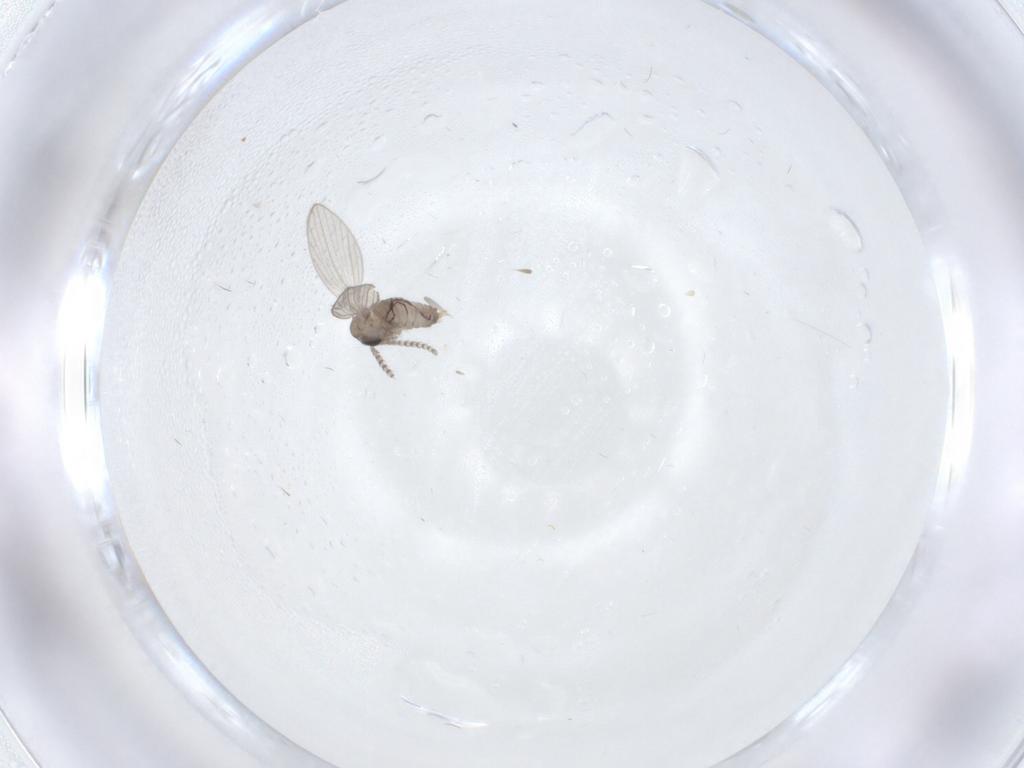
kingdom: Animalia
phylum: Arthropoda
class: Insecta
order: Diptera
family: Psychodidae
